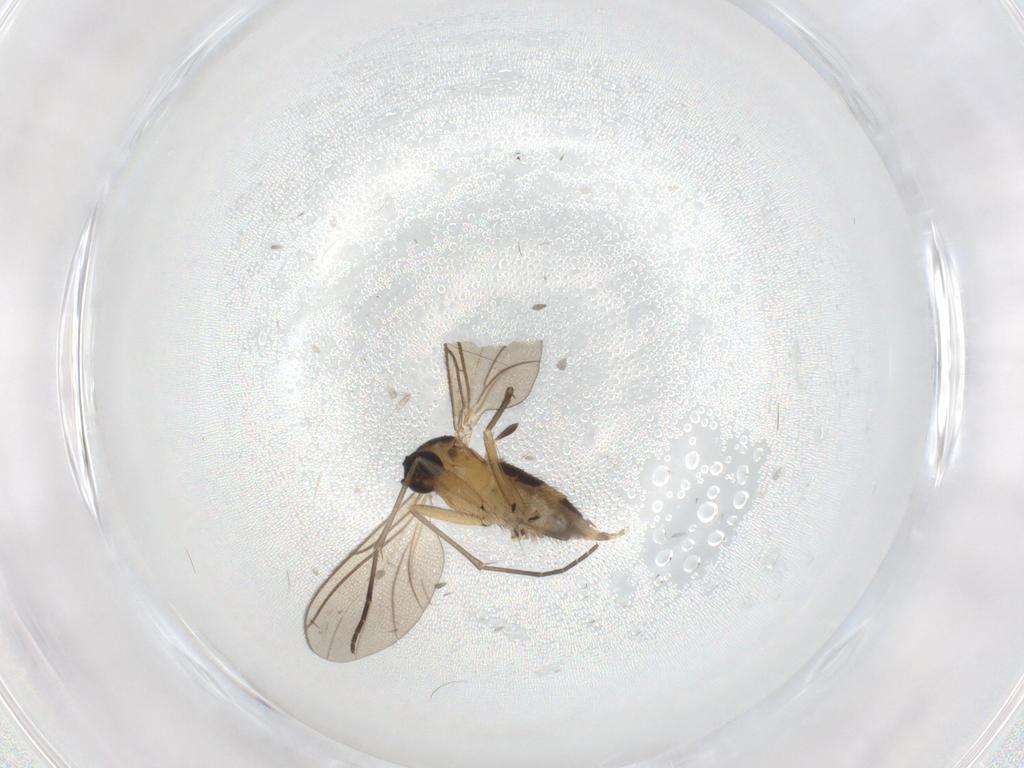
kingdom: Animalia
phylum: Arthropoda
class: Insecta
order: Diptera
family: Sciaridae
